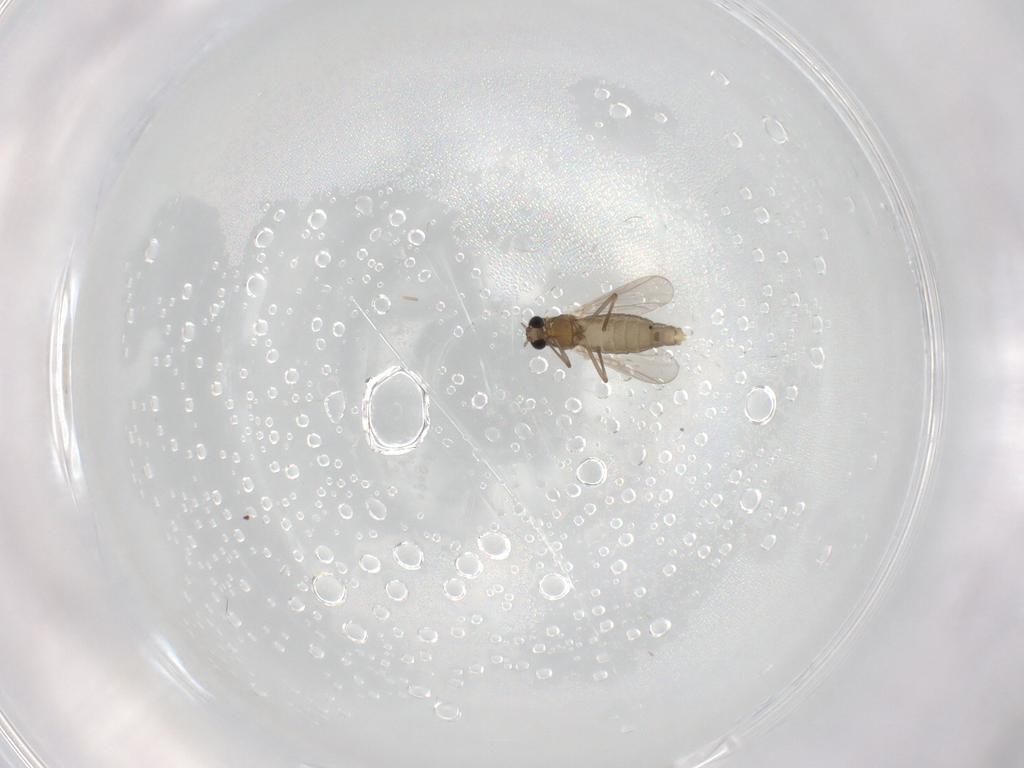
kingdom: Animalia
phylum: Arthropoda
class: Insecta
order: Diptera
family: Chironomidae
